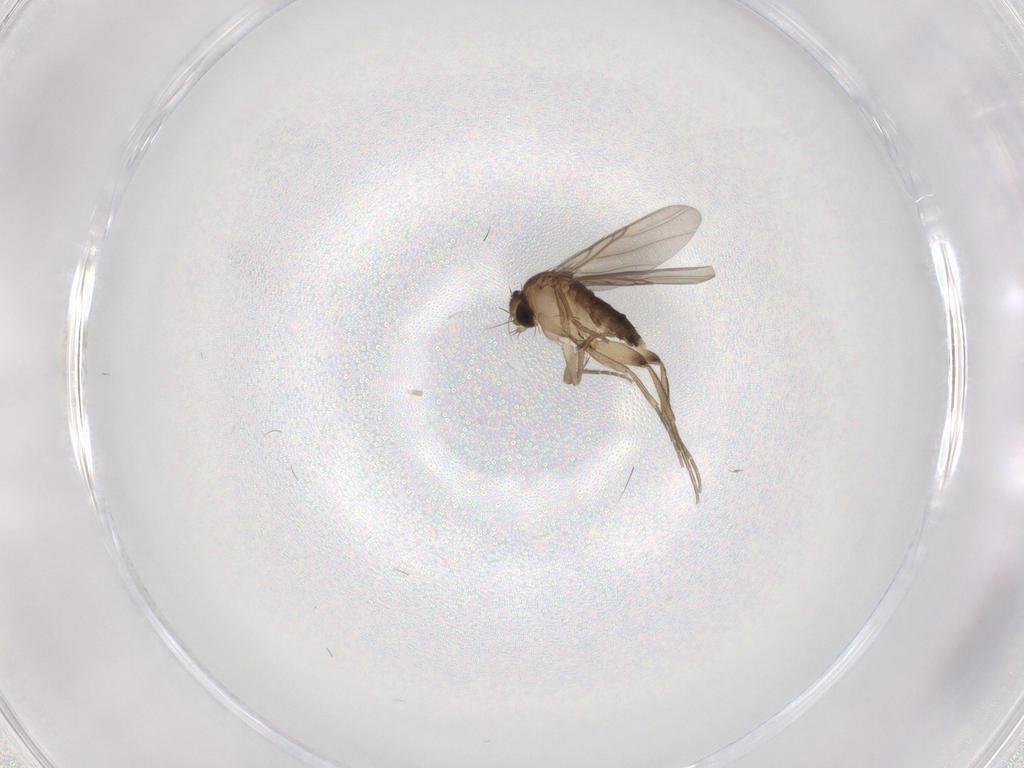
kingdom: Animalia
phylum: Arthropoda
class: Insecta
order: Diptera
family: Phoridae
